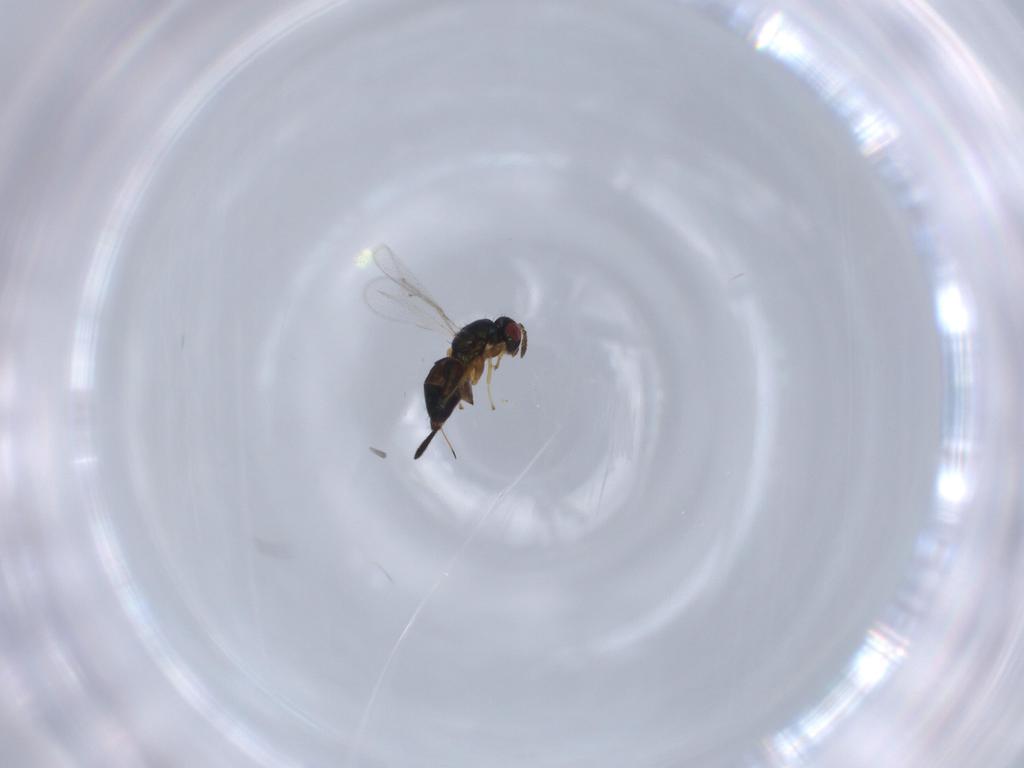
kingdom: Animalia
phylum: Arthropoda
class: Insecta
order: Hymenoptera
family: Torymidae
